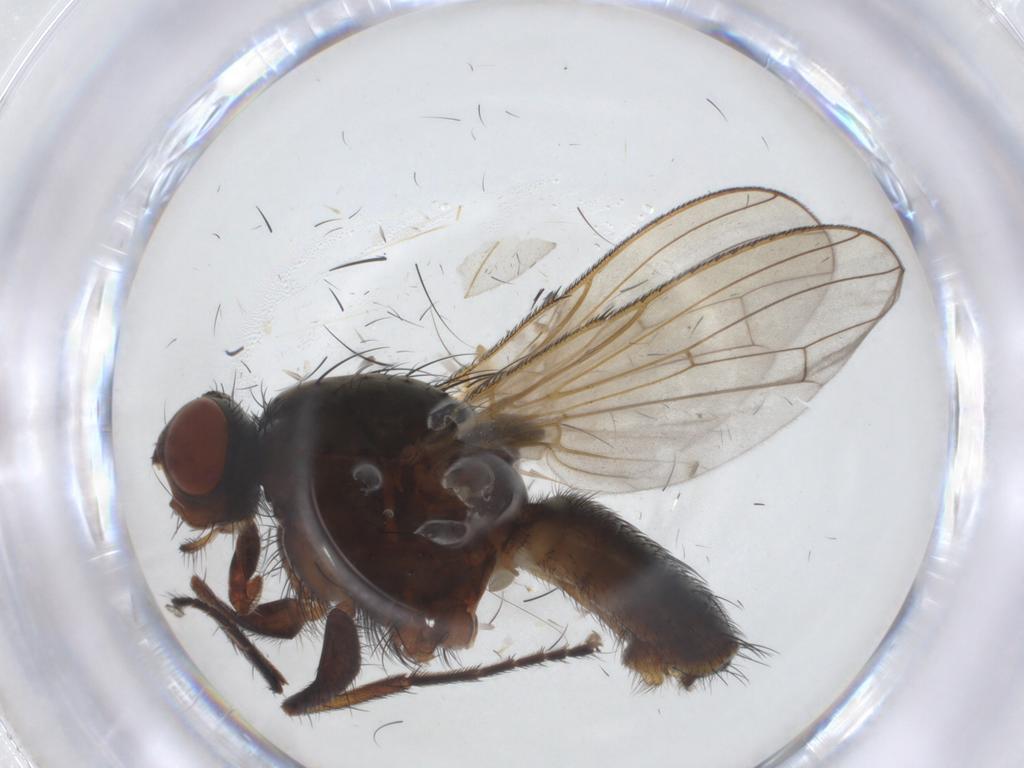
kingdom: Animalia
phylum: Arthropoda
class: Insecta
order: Diptera
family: Anthomyiidae
